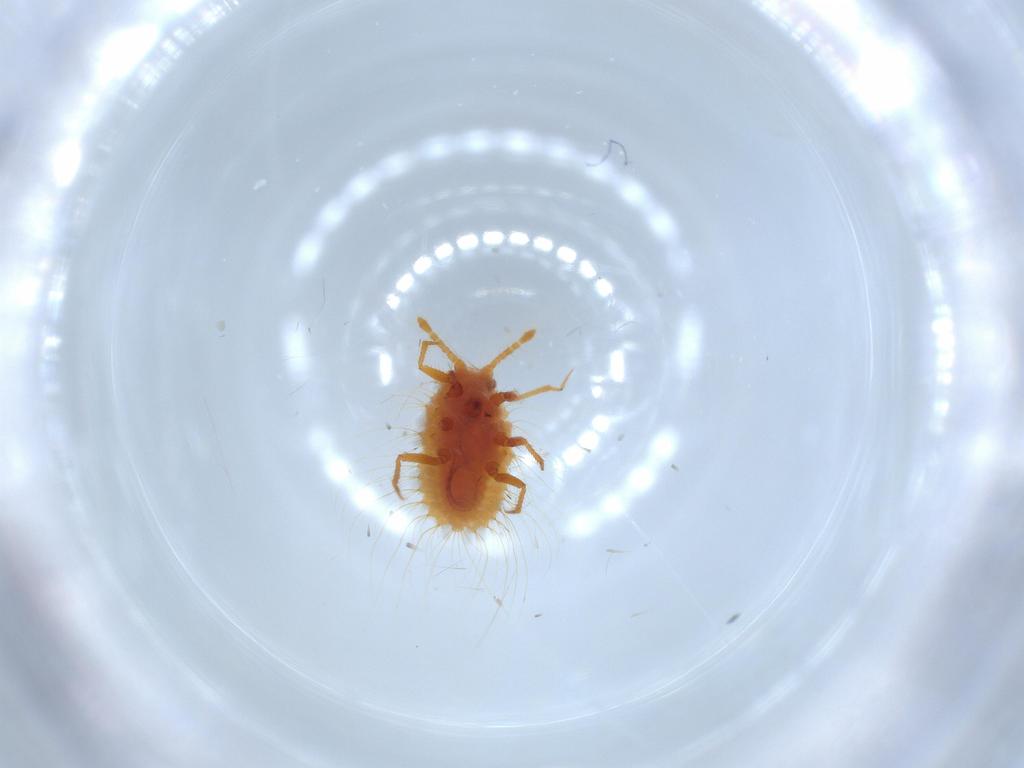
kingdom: Animalia
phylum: Arthropoda
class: Insecta
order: Hemiptera
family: Coccoidea_incertae_sedis
